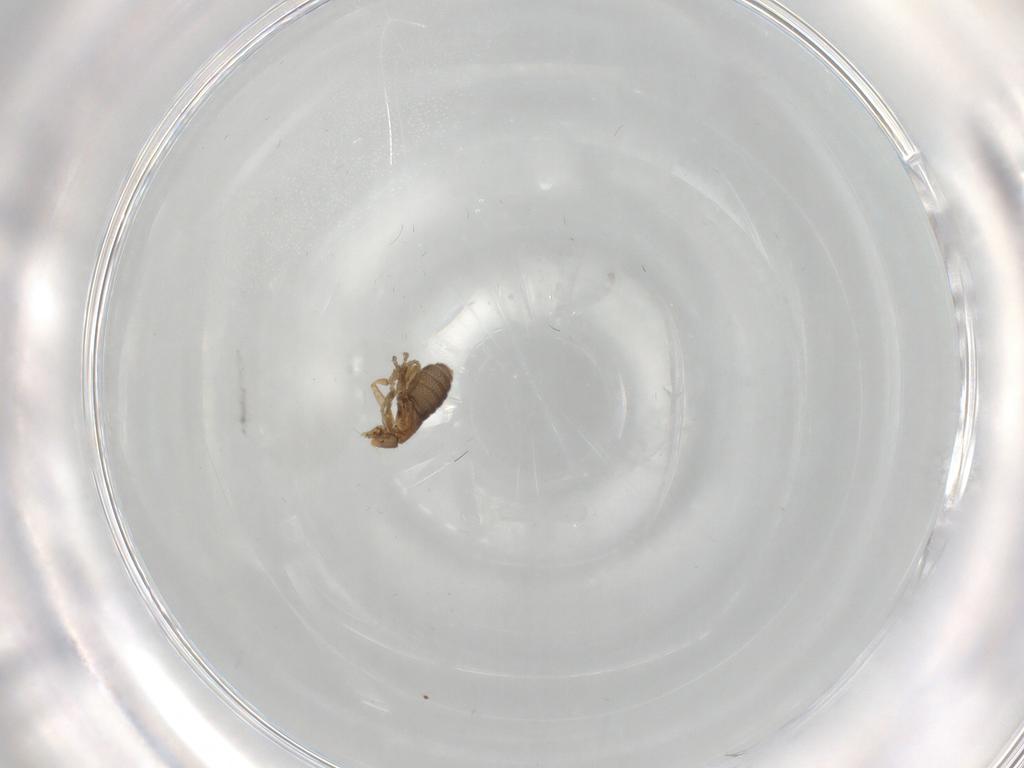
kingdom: Animalia
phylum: Arthropoda
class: Insecta
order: Diptera
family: Chironomidae
